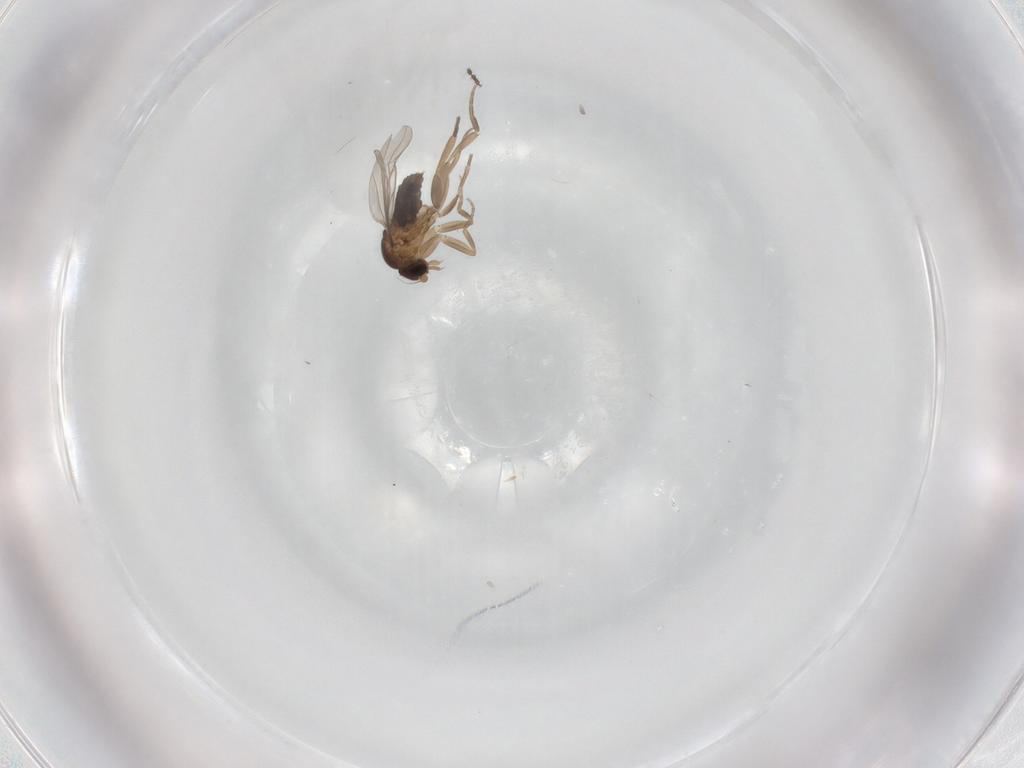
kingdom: Animalia
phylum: Arthropoda
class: Insecta
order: Diptera
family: Phoridae
